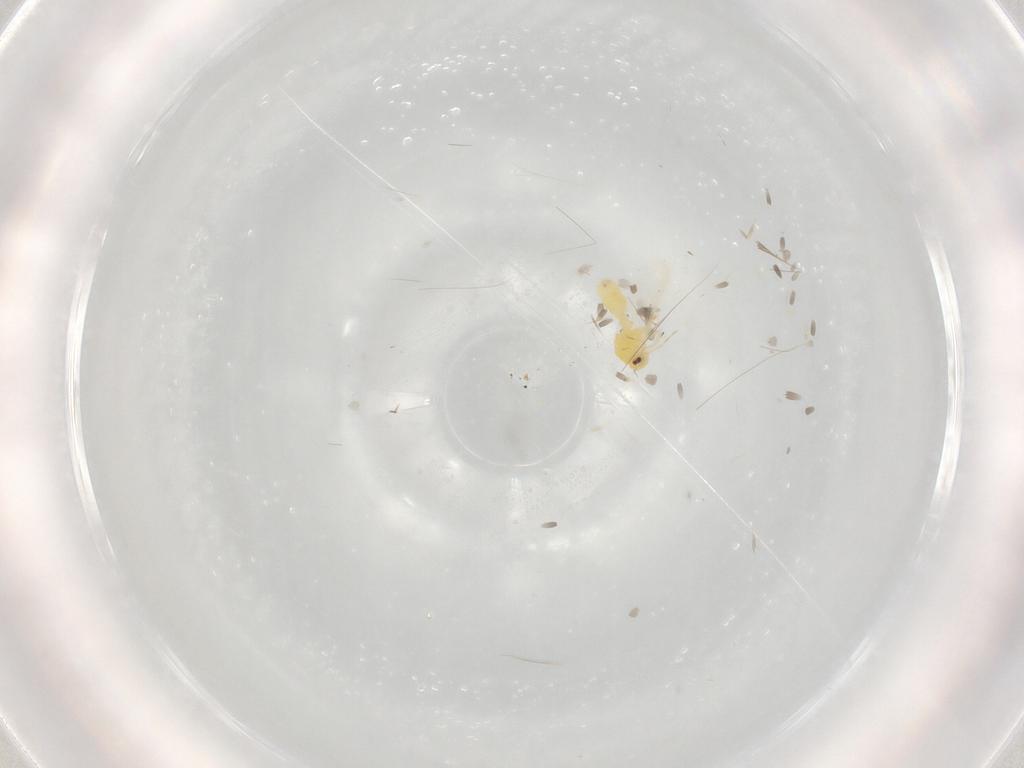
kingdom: Animalia
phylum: Arthropoda
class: Insecta
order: Hemiptera
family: Aleyrodidae
